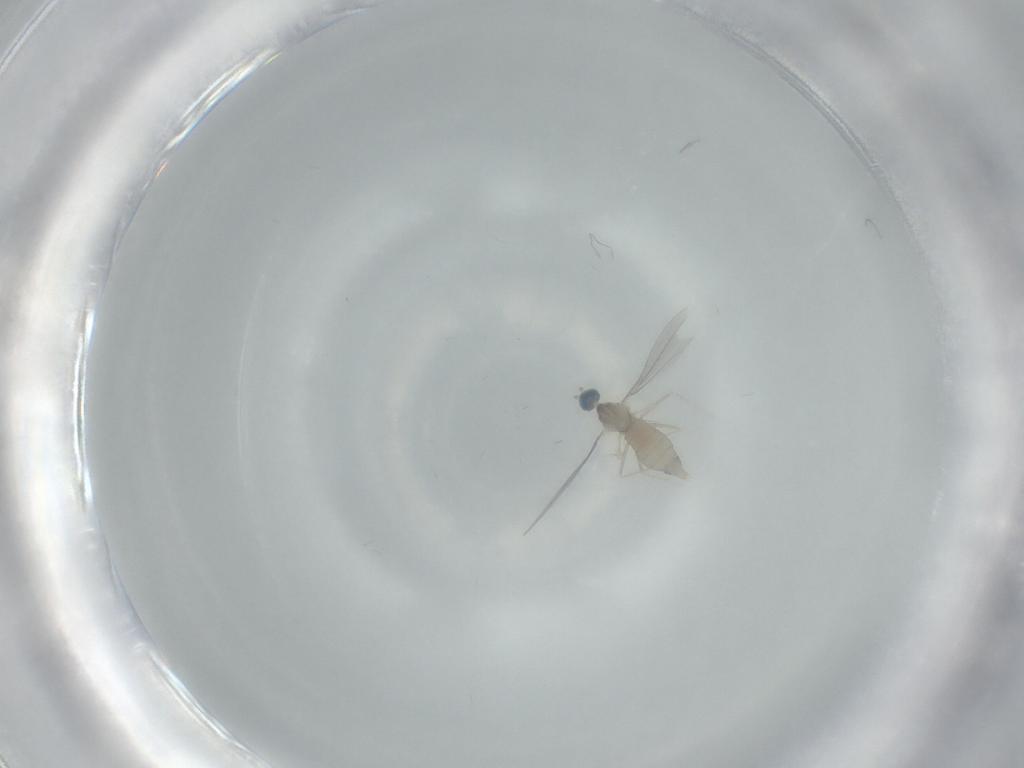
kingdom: Animalia
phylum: Arthropoda
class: Insecta
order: Diptera
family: Cecidomyiidae
